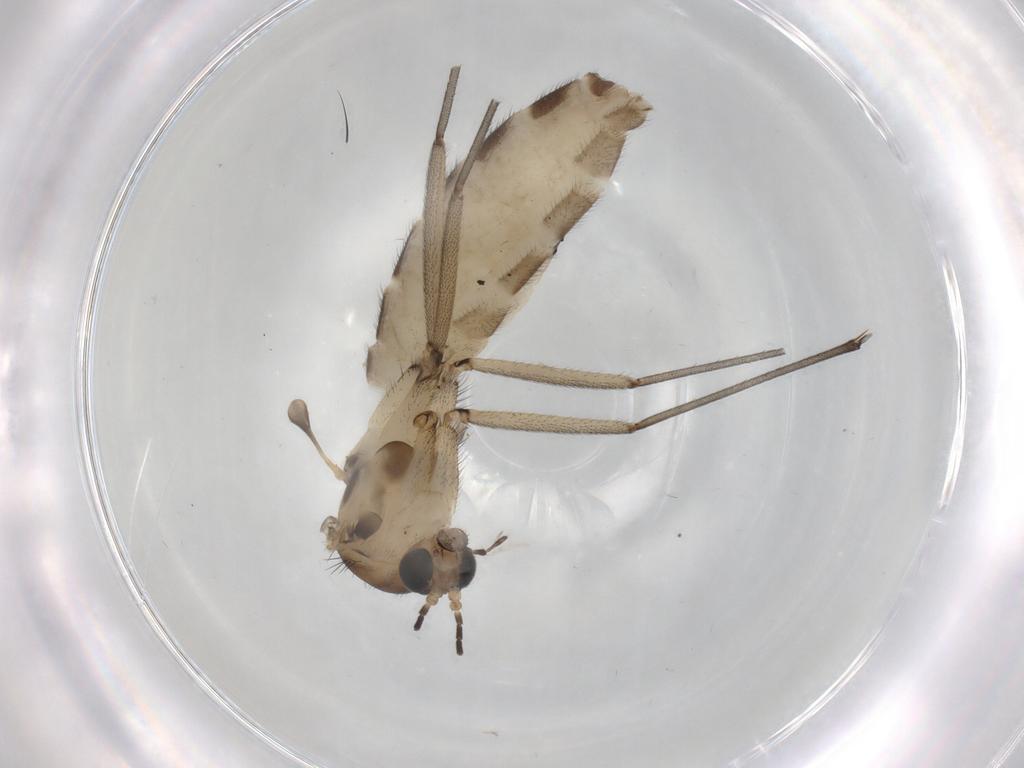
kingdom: Animalia
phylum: Arthropoda
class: Insecta
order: Diptera
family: Sciaridae
